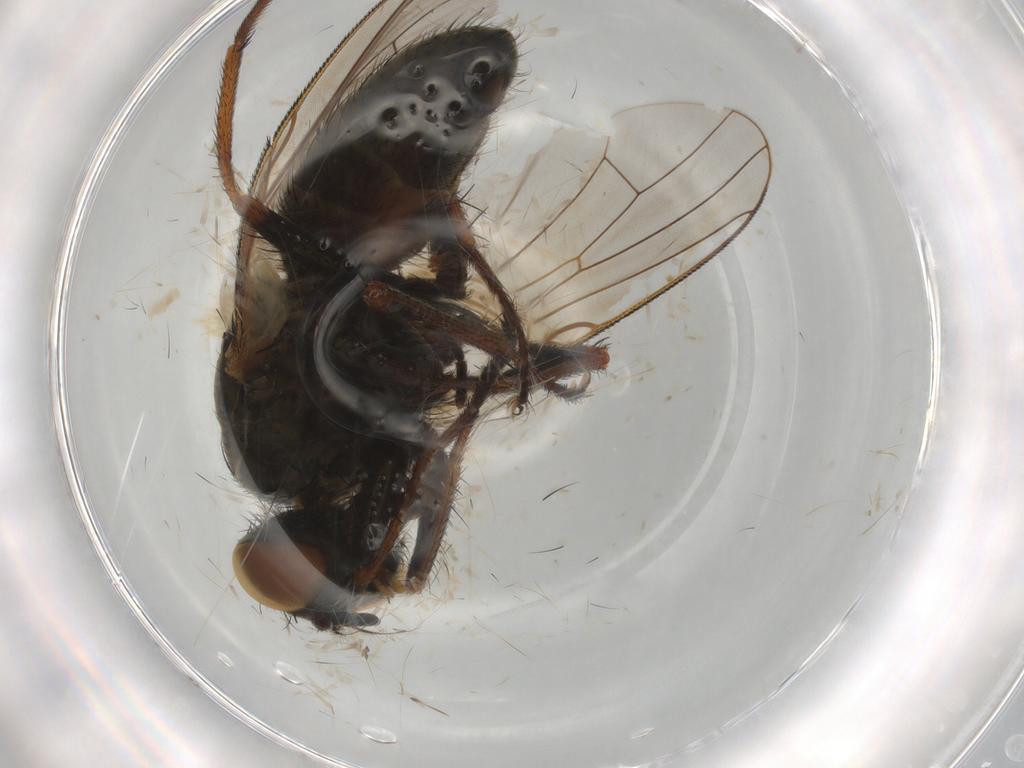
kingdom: Animalia
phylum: Arthropoda
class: Insecta
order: Diptera
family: Muscidae
